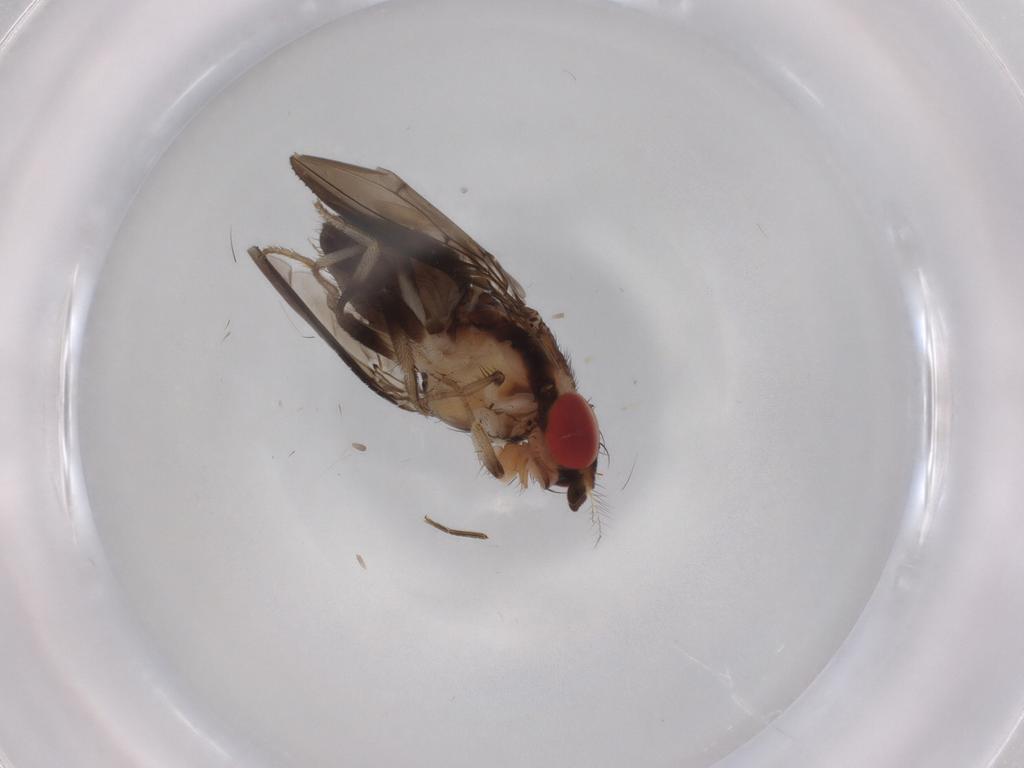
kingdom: Animalia
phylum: Arthropoda
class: Insecta
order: Diptera
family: Drosophilidae
